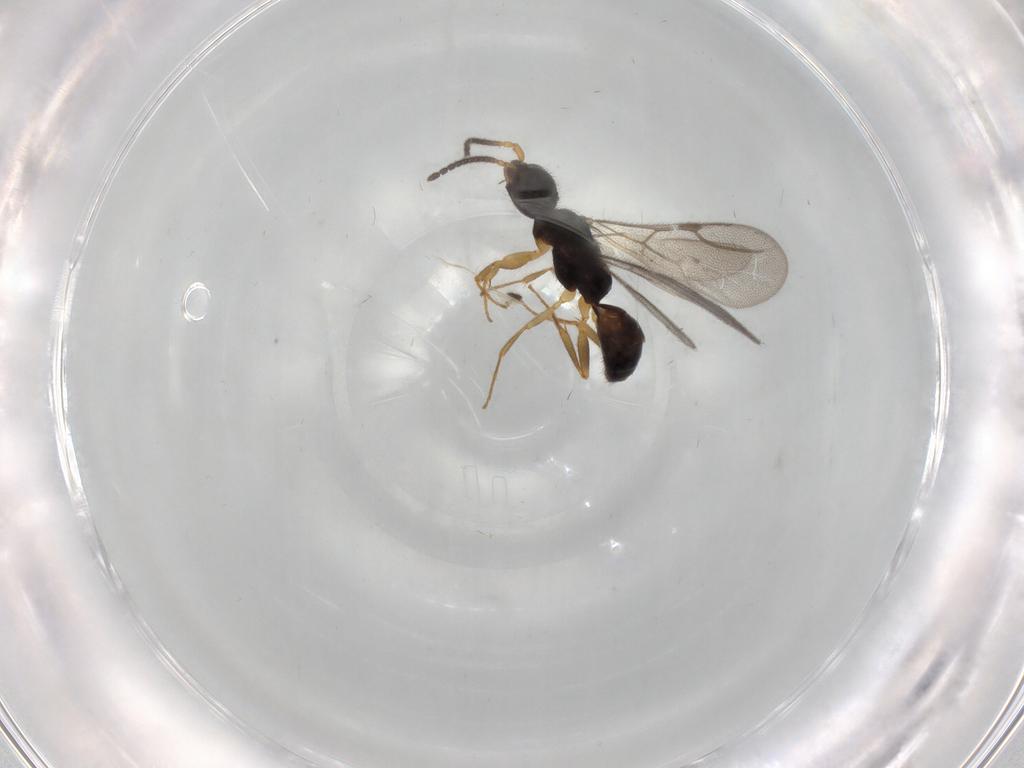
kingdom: Animalia
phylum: Arthropoda
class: Insecta
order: Hymenoptera
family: Bethylidae
